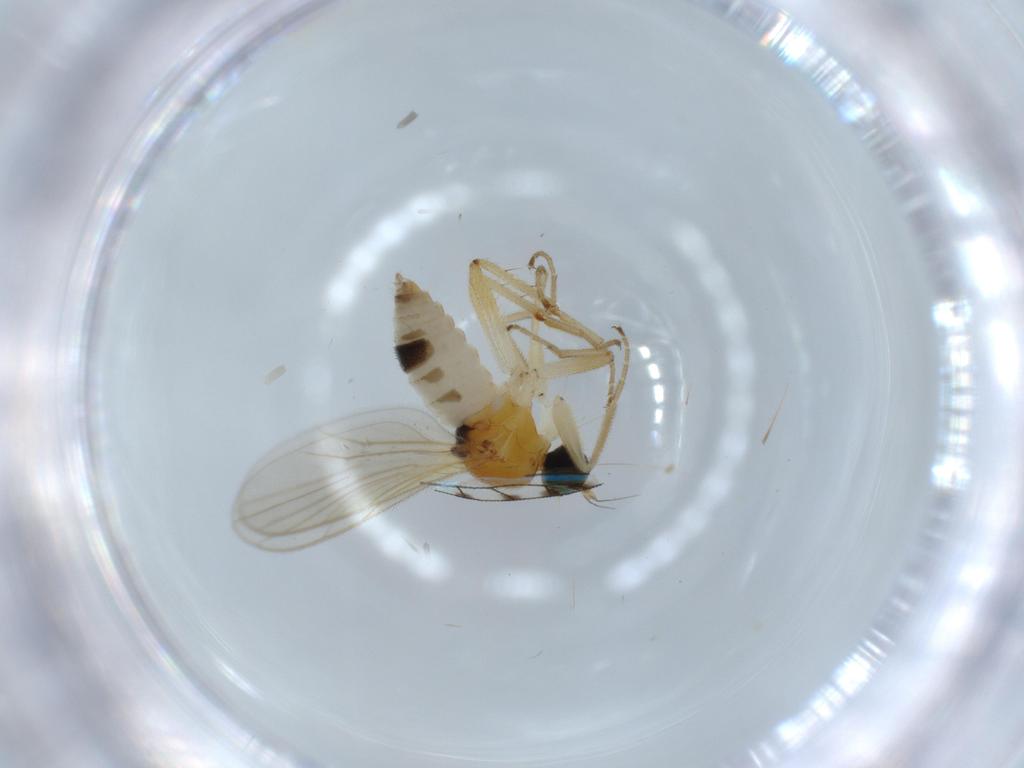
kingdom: Animalia
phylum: Arthropoda
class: Insecta
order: Diptera
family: Hybotidae
